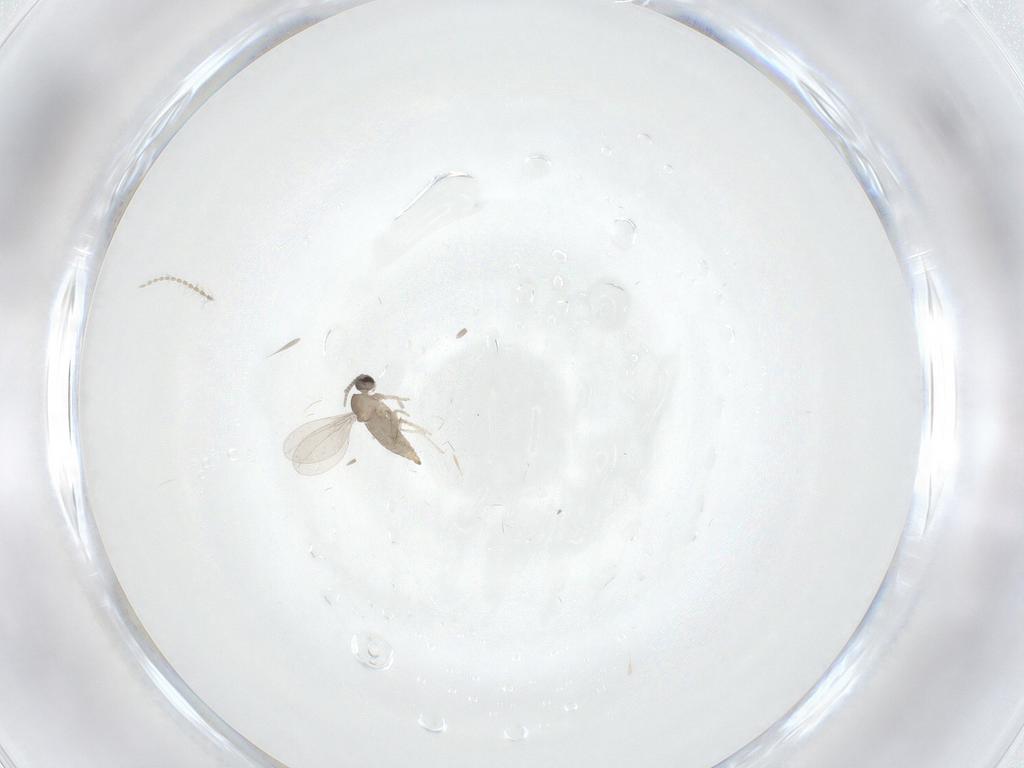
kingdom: Animalia
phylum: Arthropoda
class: Insecta
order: Diptera
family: Cecidomyiidae
